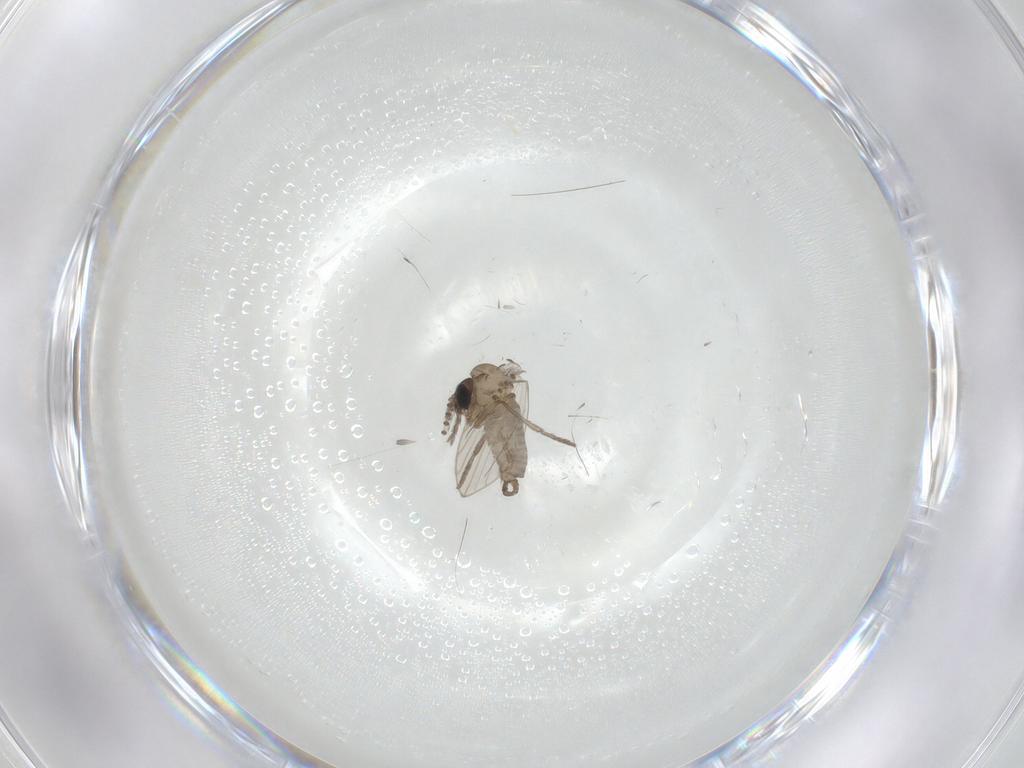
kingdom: Animalia
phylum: Arthropoda
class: Insecta
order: Diptera
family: Psychodidae
